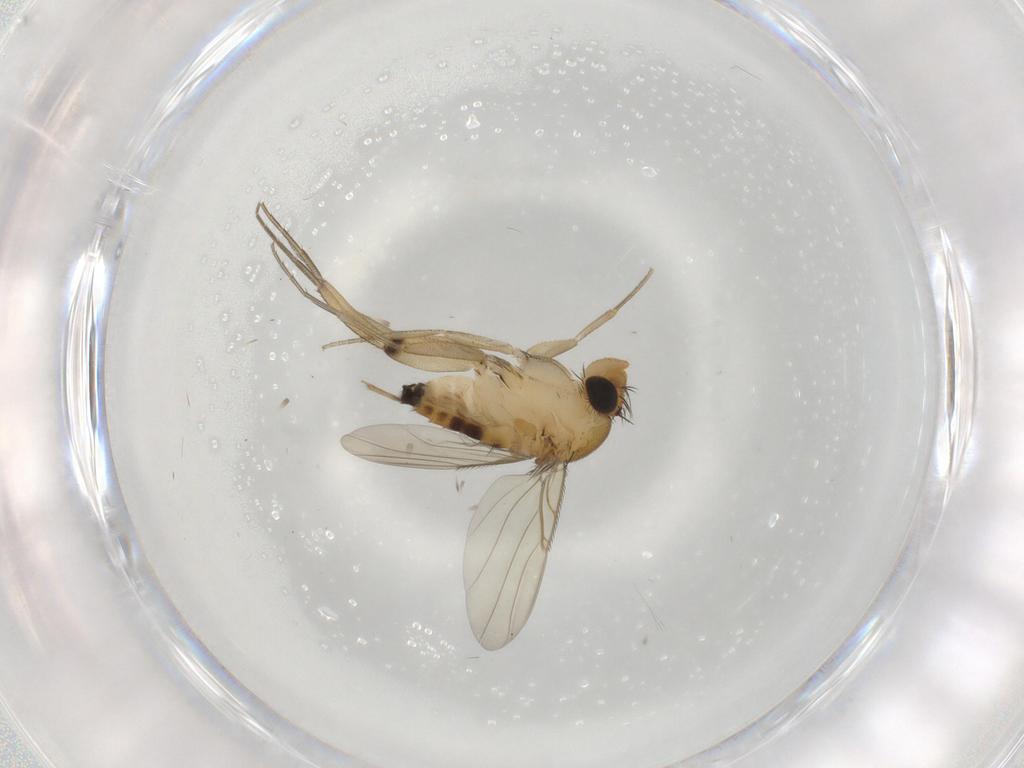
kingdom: Animalia
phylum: Arthropoda
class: Insecta
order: Diptera
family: Phoridae
